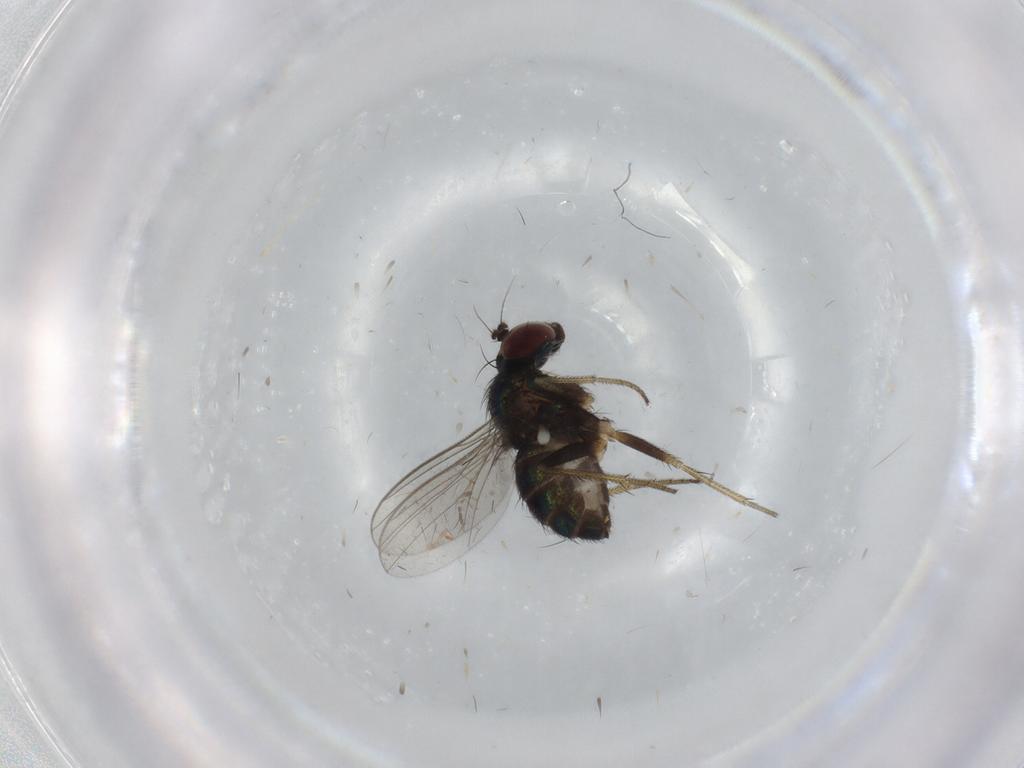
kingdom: Animalia
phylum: Arthropoda
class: Insecta
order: Diptera
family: Dolichopodidae
